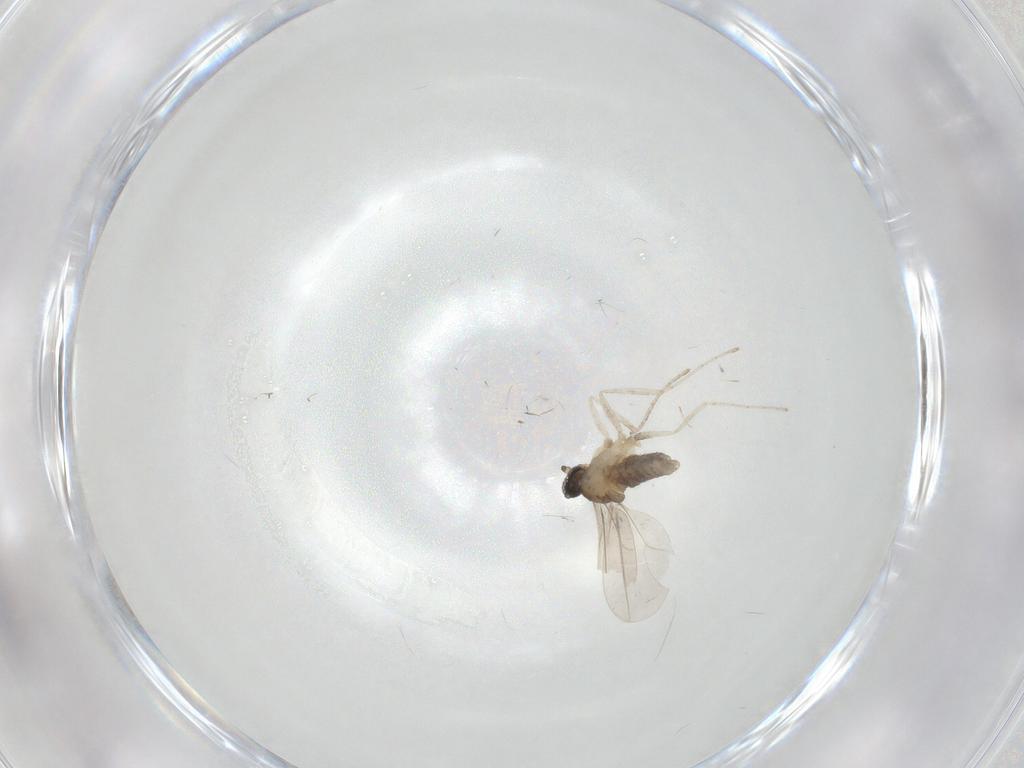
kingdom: Animalia
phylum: Arthropoda
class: Insecta
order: Diptera
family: Cecidomyiidae
